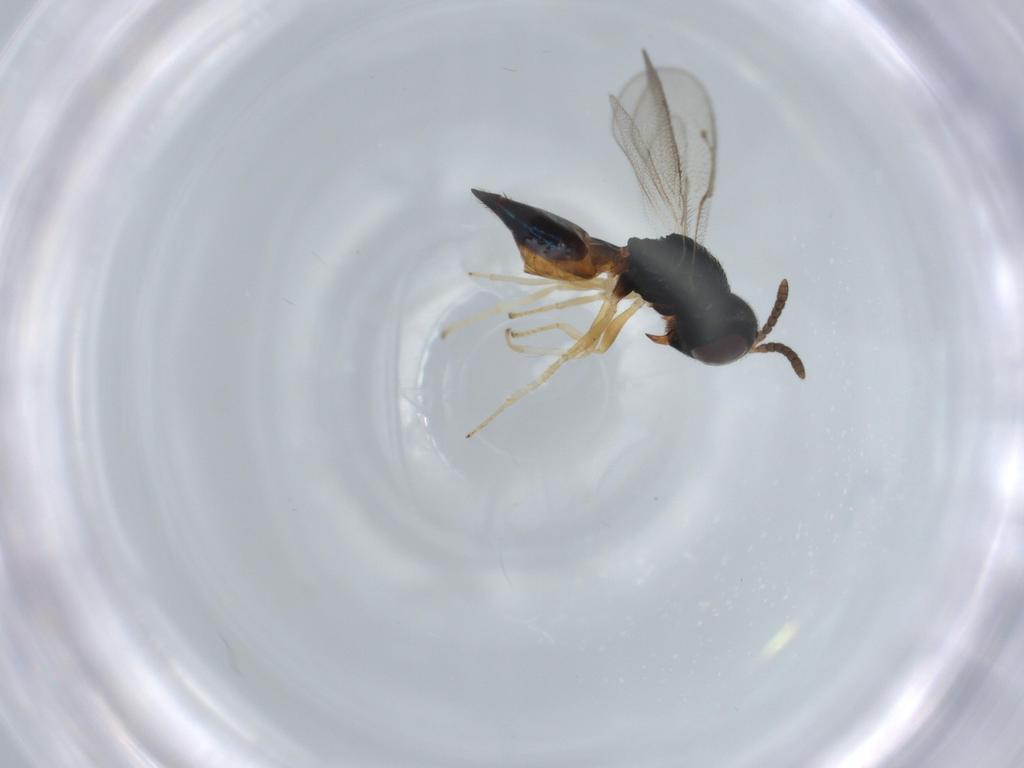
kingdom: Animalia
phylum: Arthropoda
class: Insecta
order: Hymenoptera
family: Pteromalidae
